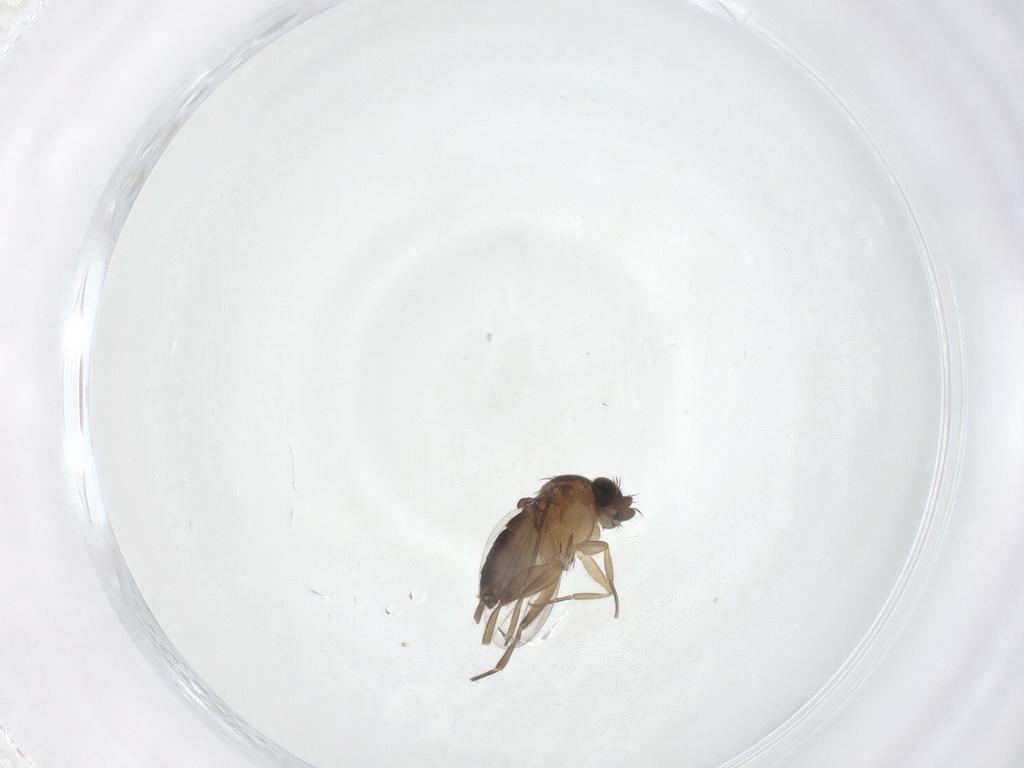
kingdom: Animalia
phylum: Arthropoda
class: Insecta
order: Diptera
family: Phoridae
